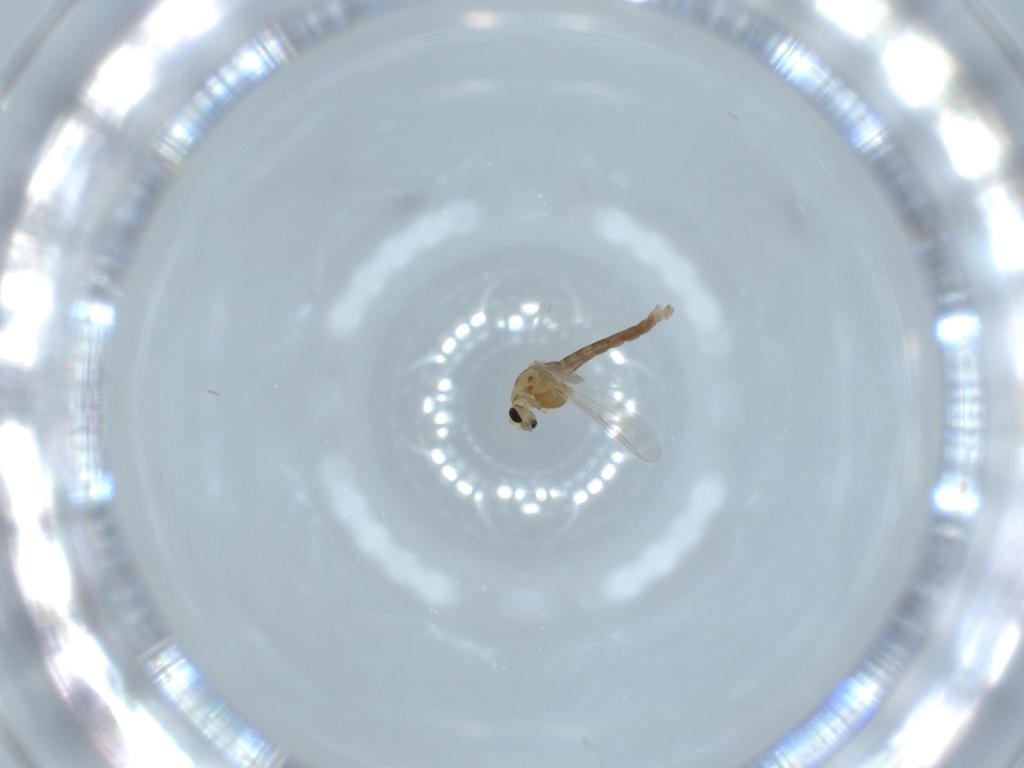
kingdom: Animalia
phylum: Arthropoda
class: Insecta
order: Diptera
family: Chironomidae
